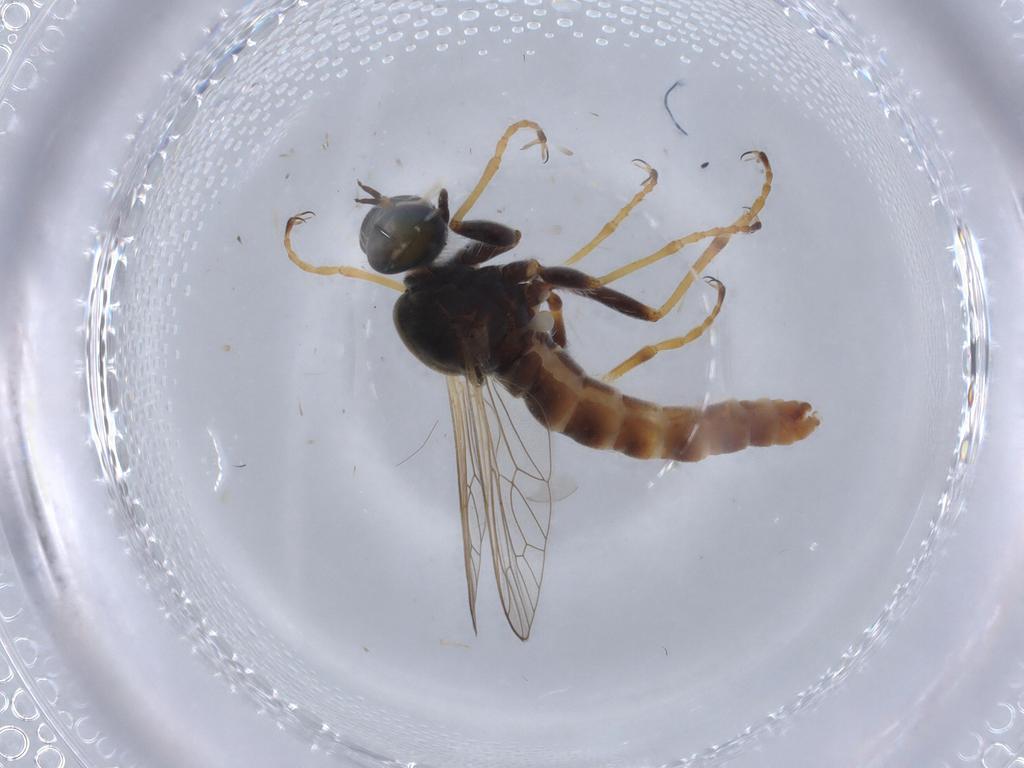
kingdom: Animalia
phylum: Arthropoda
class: Insecta
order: Diptera
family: Asilidae
